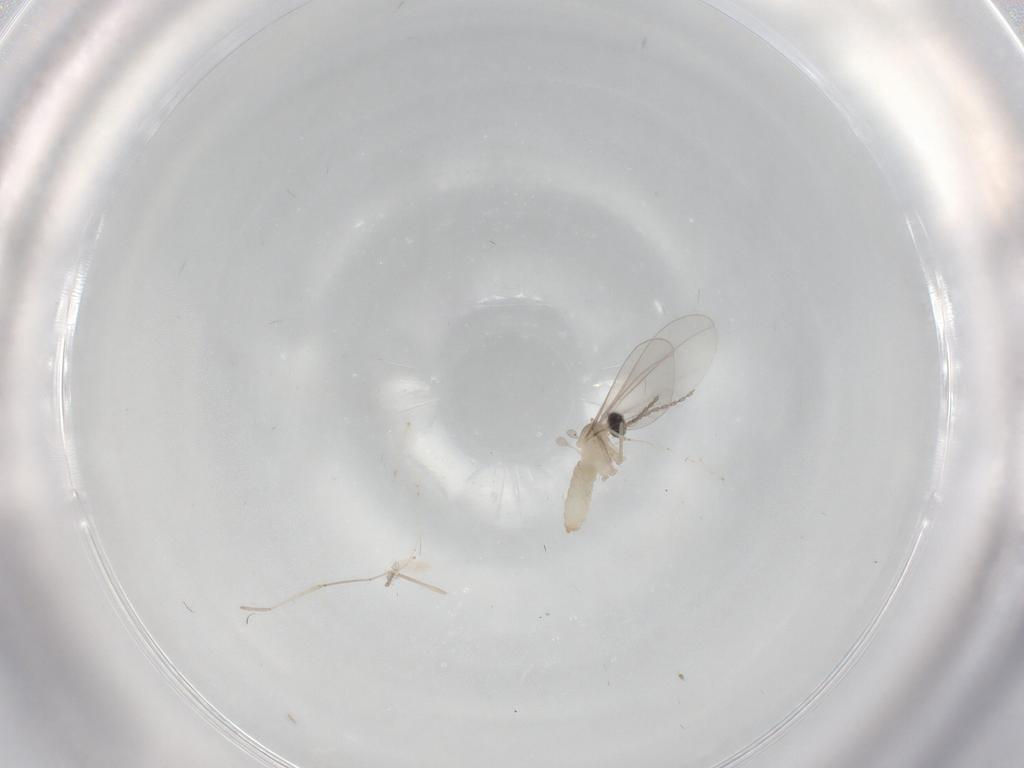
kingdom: Animalia
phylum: Arthropoda
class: Insecta
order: Diptera
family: Cecidomyiidae
